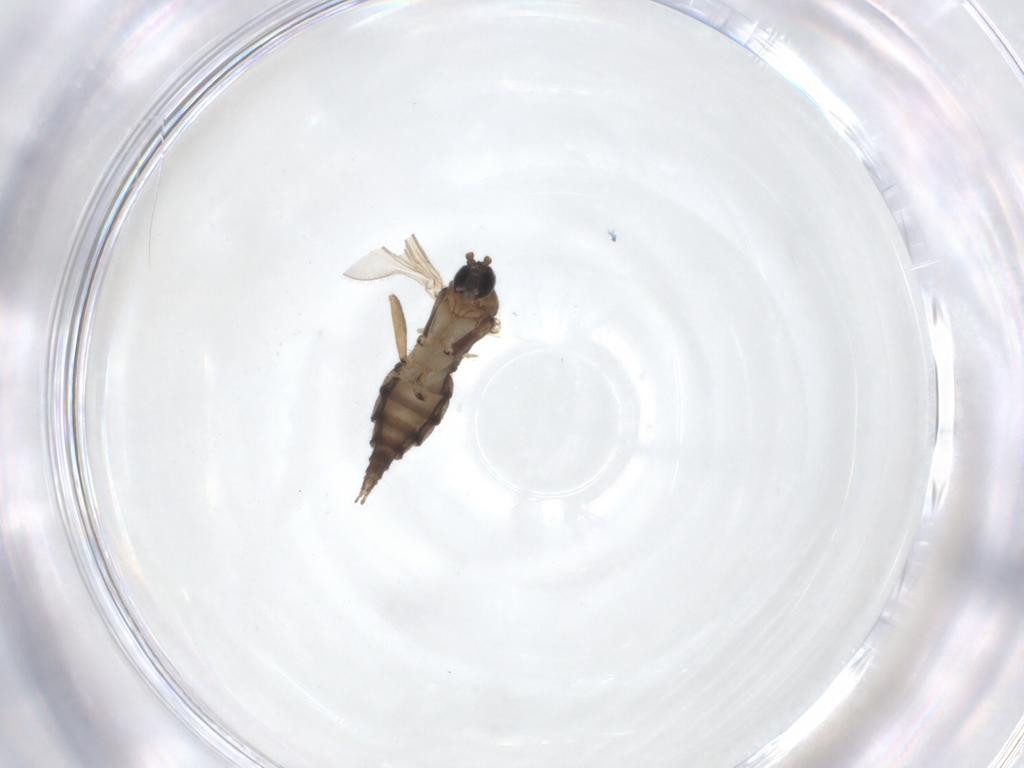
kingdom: Animalia
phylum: Arthropoda
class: Insecta
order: Diptera
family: Sciaridae
